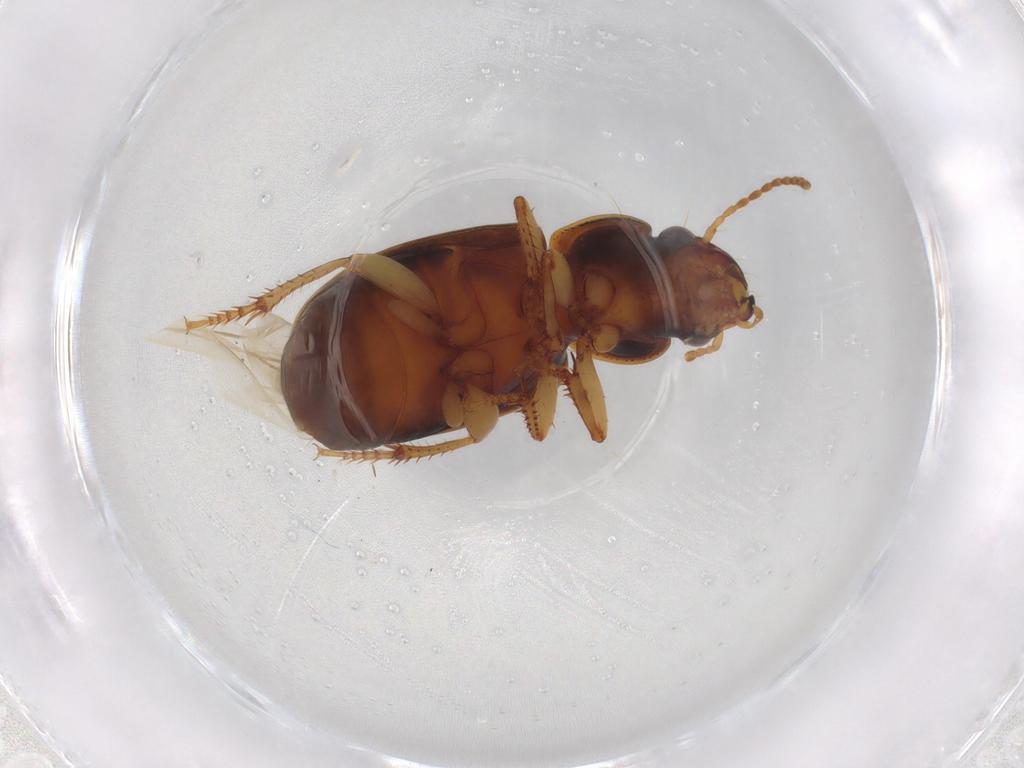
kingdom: Animalia
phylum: Arthropoda
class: Insecta
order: Coleoptera
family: Carabidae
